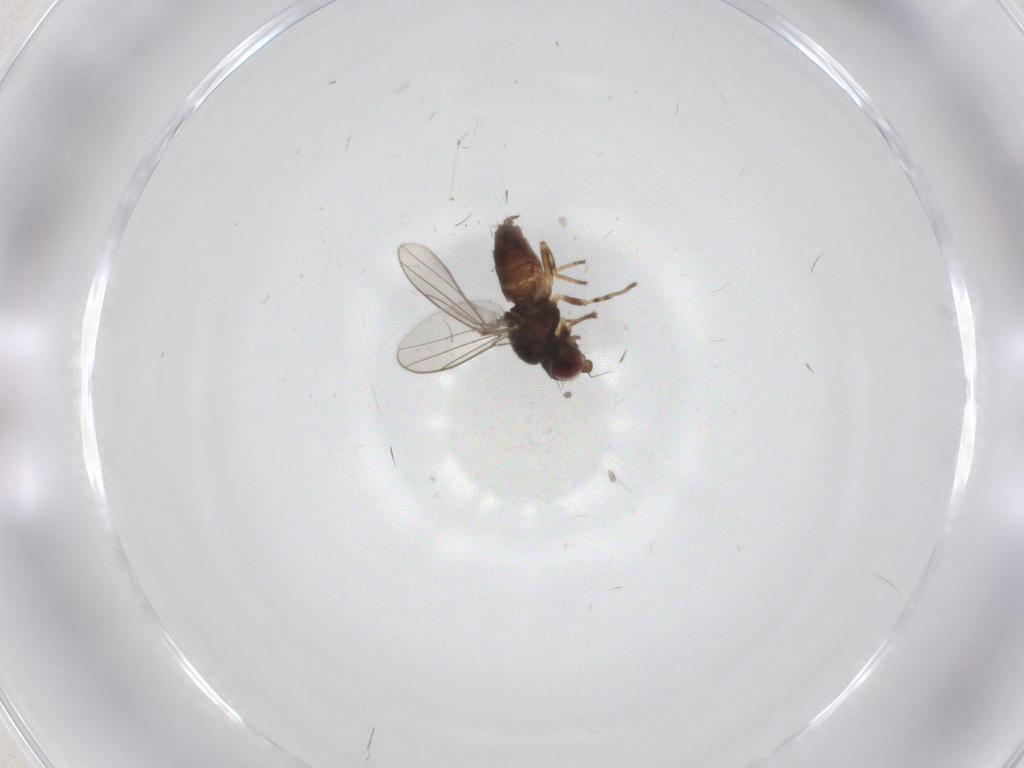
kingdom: Animalia
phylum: Arthropoda
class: Insecta
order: Diptera
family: Chloropidae
